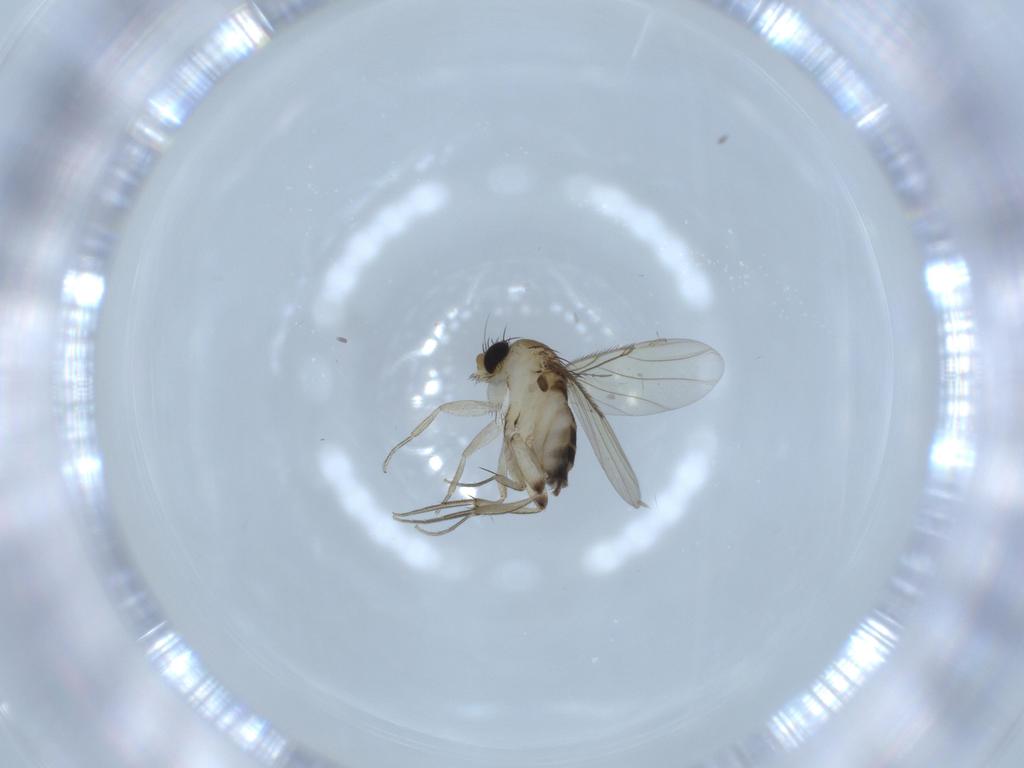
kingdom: Animalia
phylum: Arthropoda
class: Insecta
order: Diptera
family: Phoridae
